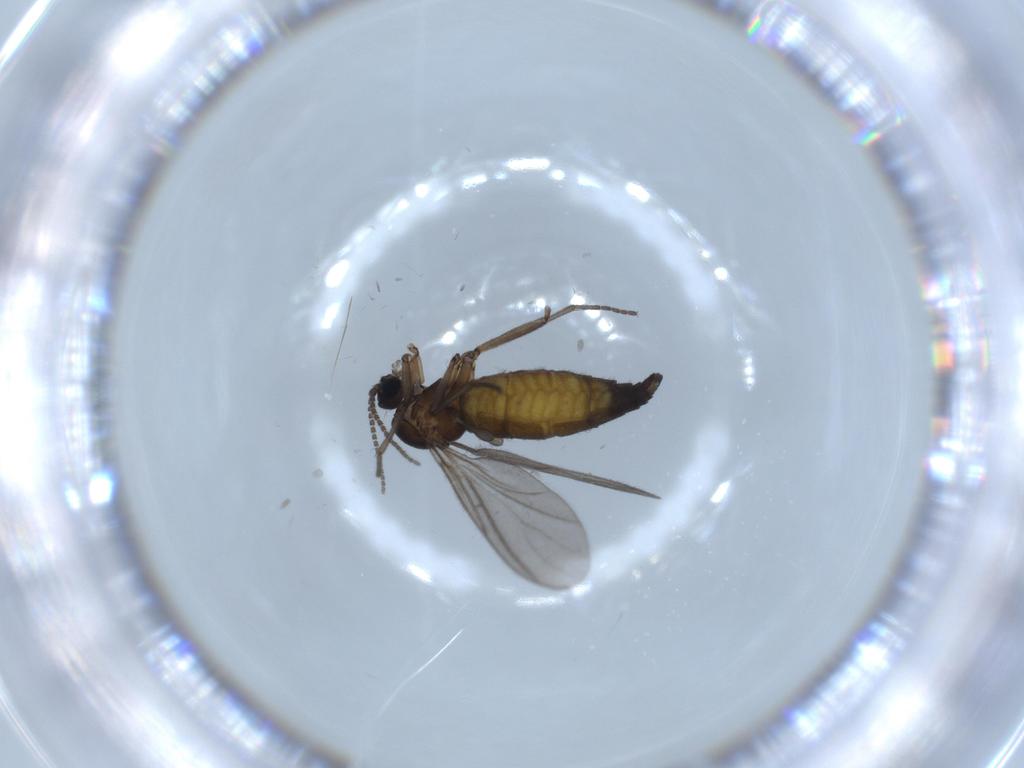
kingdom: Animalia
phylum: Arthropoda
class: Insecta
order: Diptera
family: Sciaridae
